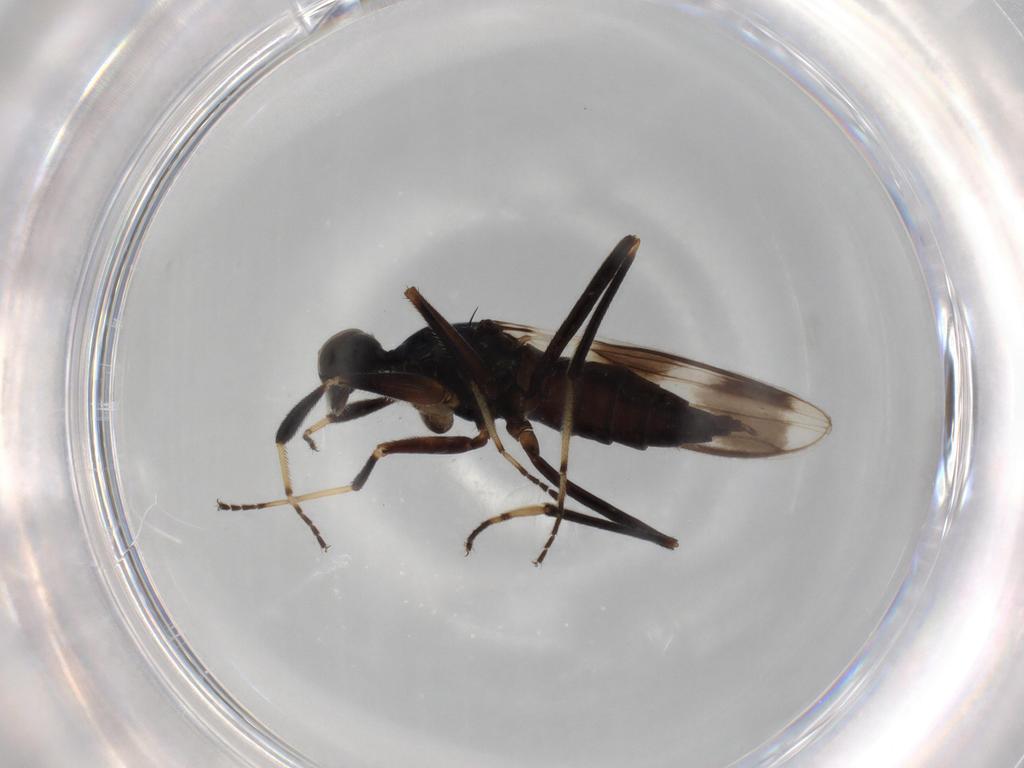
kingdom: Animalia
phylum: Arthropoda
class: Insecta
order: Diptera
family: Hybotidae
